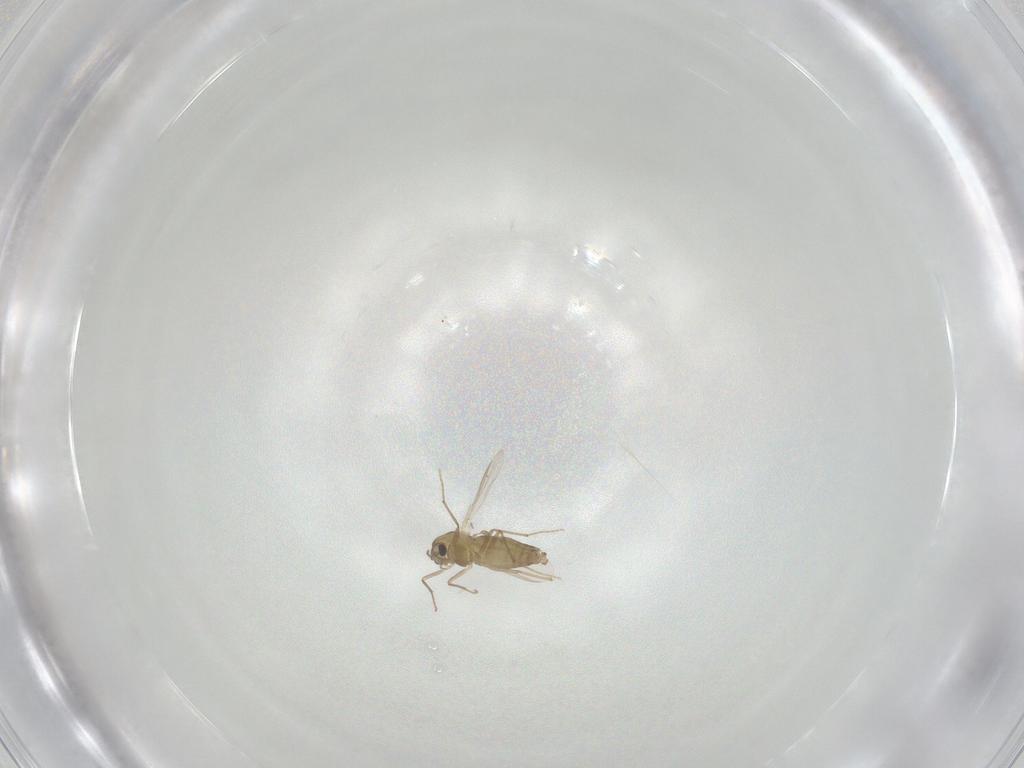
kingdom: Animalia
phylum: Arthropoda
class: Insecta
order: Diptera
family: Chironomidae
